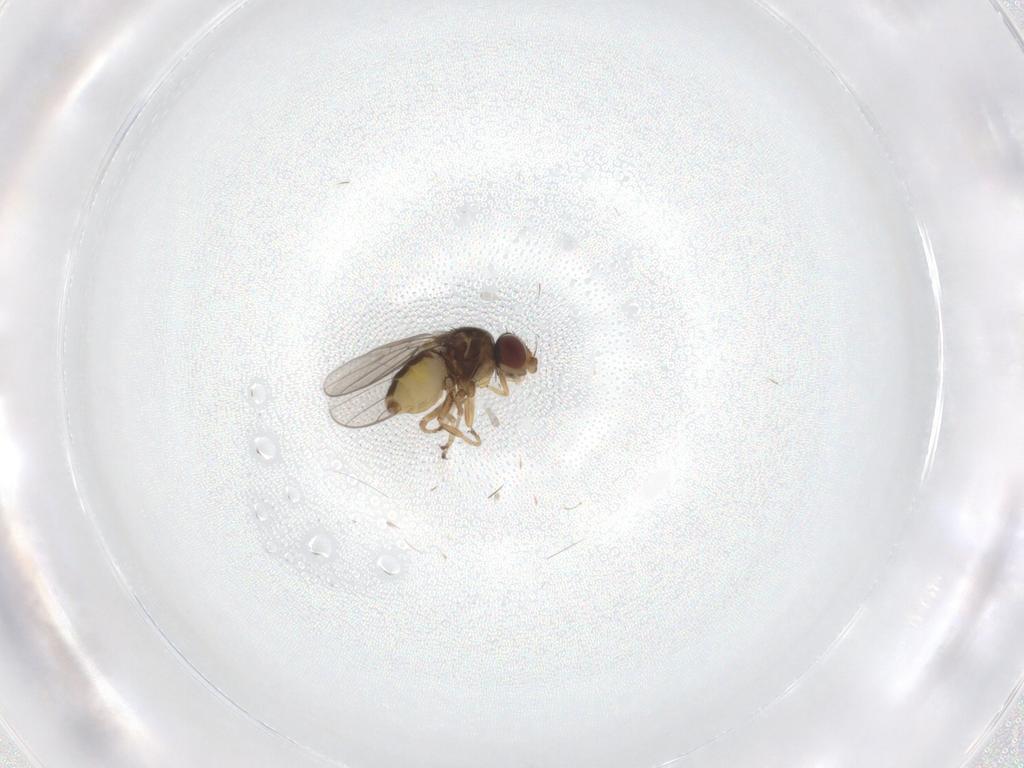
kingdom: Animalia
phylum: Arthropoda
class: Insecta
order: Diptera
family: Chloropidae
